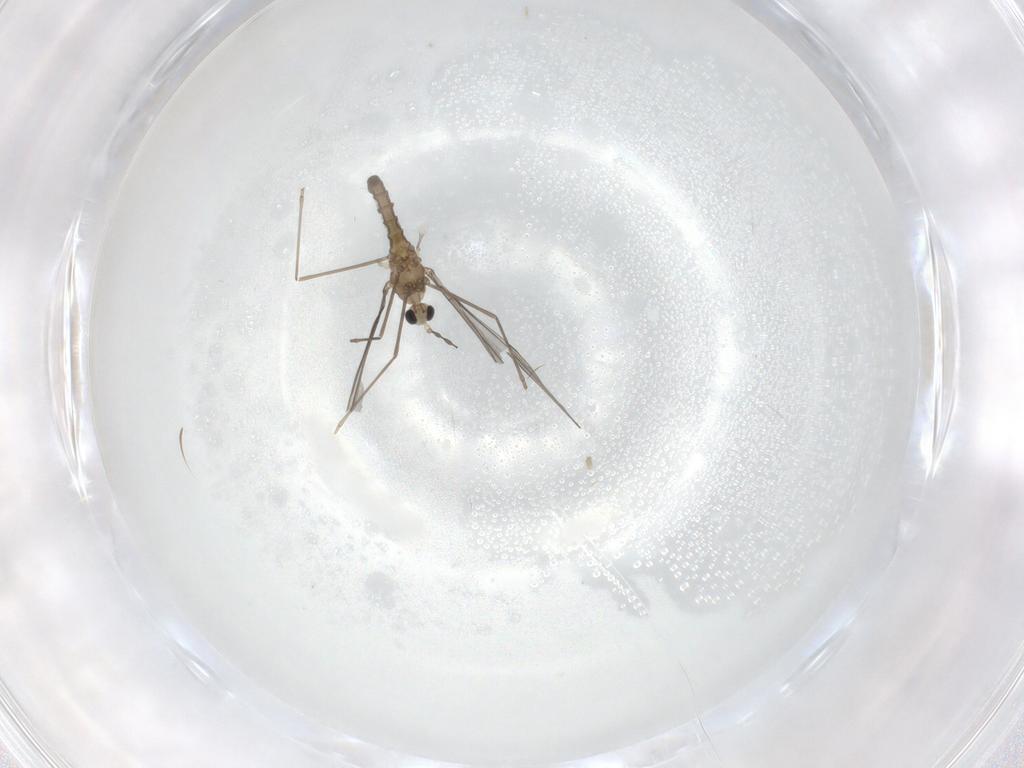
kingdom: Animalia
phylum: Arthropoda
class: Insecta
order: Diptera
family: Cecidomyiidae
